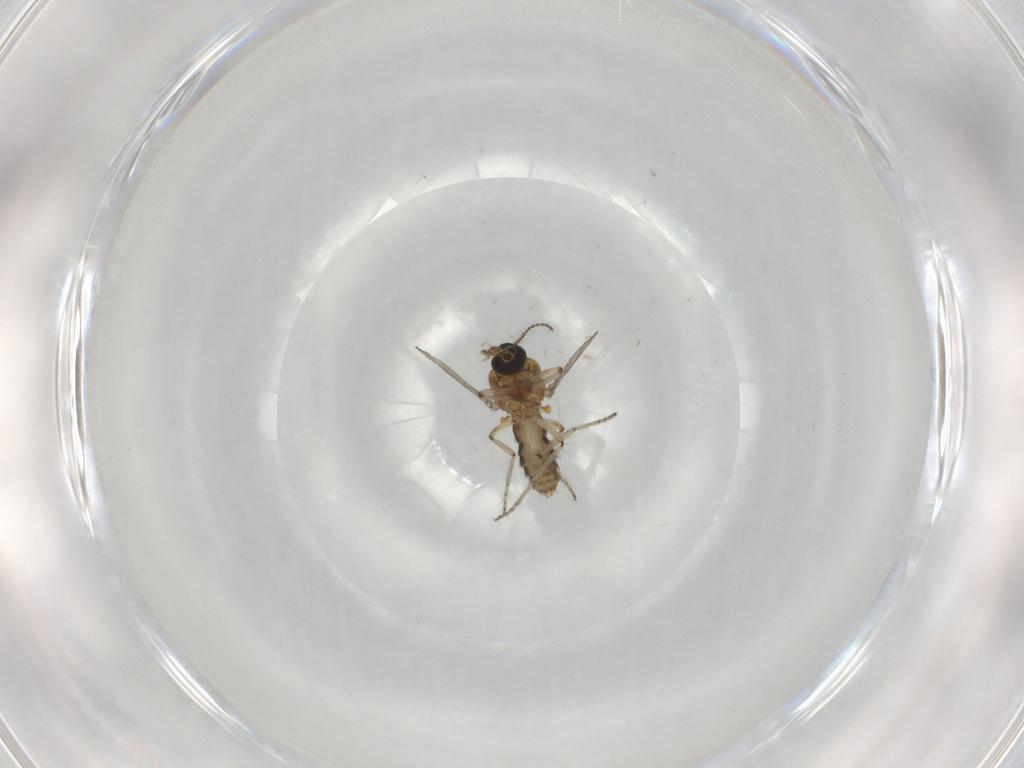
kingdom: Animalia
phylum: Arthropoda
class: Insecta
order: Diptera
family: Ceratopogonidae
